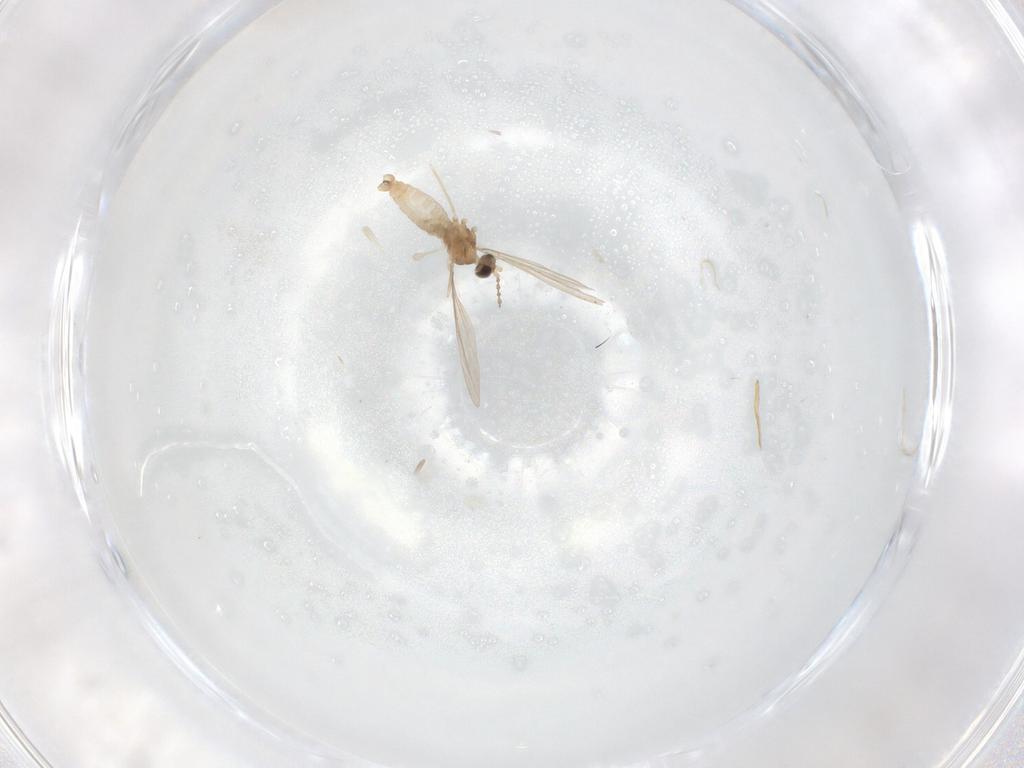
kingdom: Animalia
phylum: Arthropoda
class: Insecta
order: Diptera
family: Cecidomyiidae
